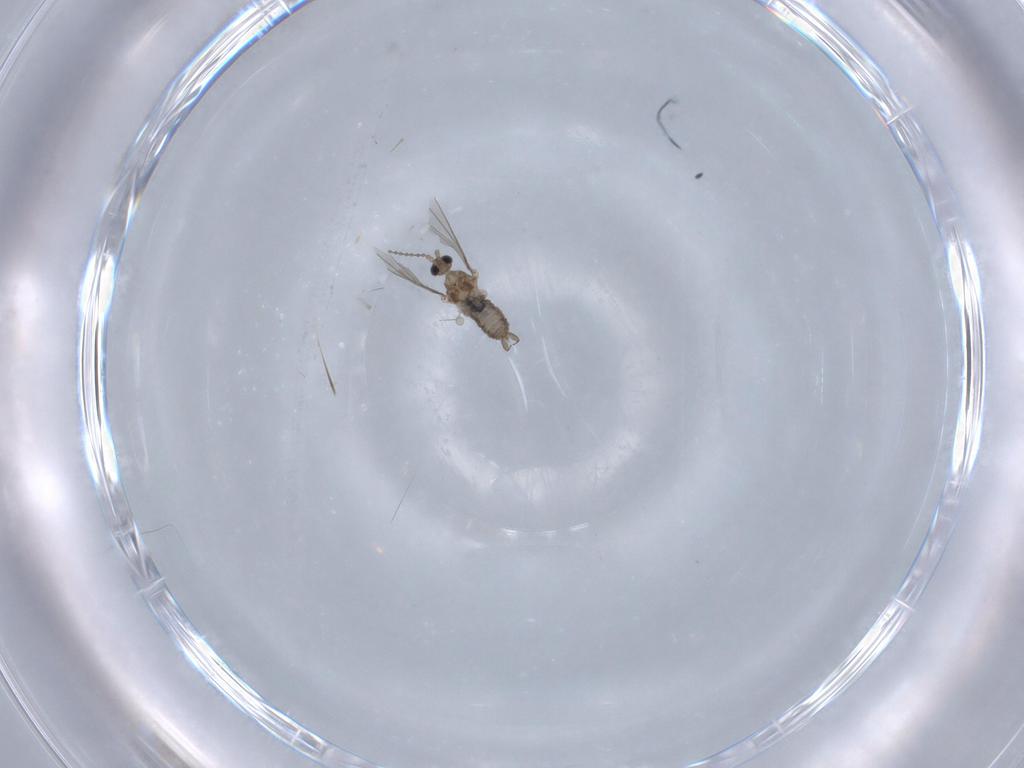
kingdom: Animalia
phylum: Arthropoda
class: Insecta
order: Diptera
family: Cecidomyiidae
